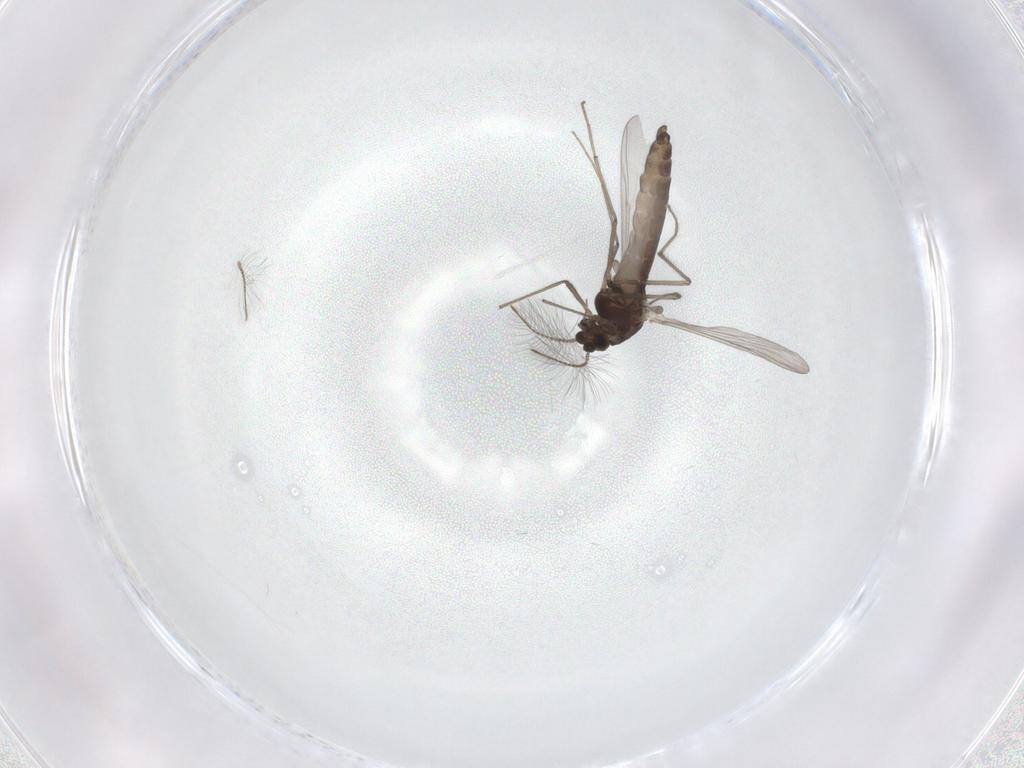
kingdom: Animalia
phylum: Arthropoda
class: Insecta
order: Diptera
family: Chironomidae
